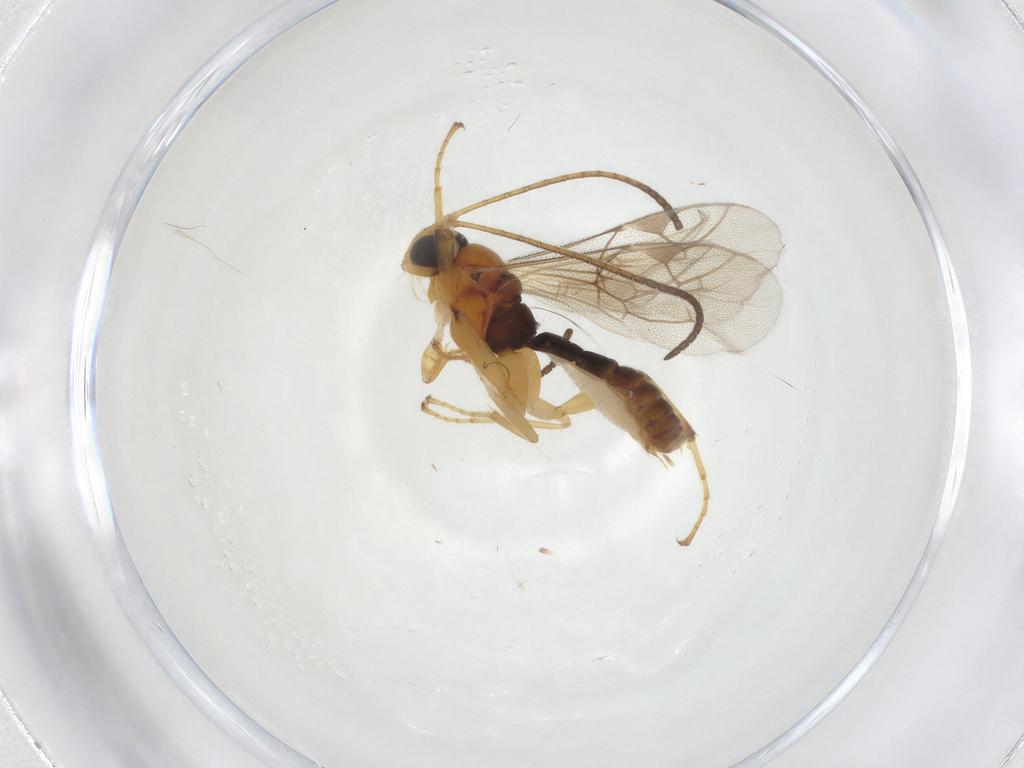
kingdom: Animalia
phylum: Arthropoda
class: Insecta
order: Hymenoptera
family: Ichneumonidae
